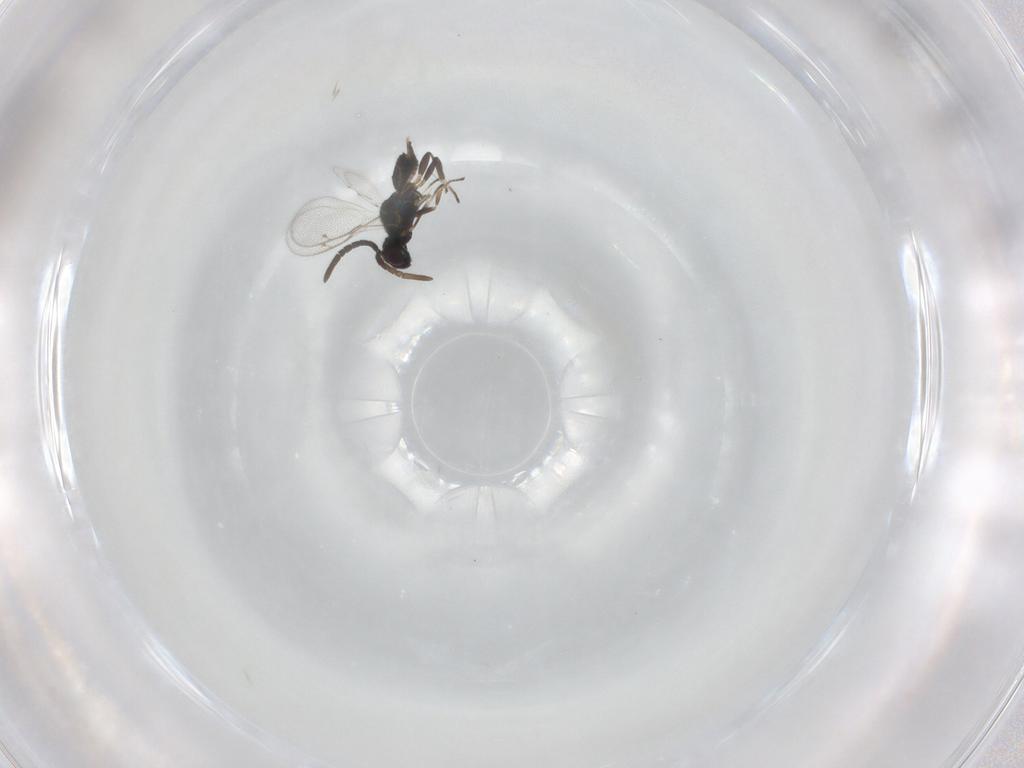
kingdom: Animalia
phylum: Arthropoda
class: Insecta
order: Hymenoptera
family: Eupelmidae
